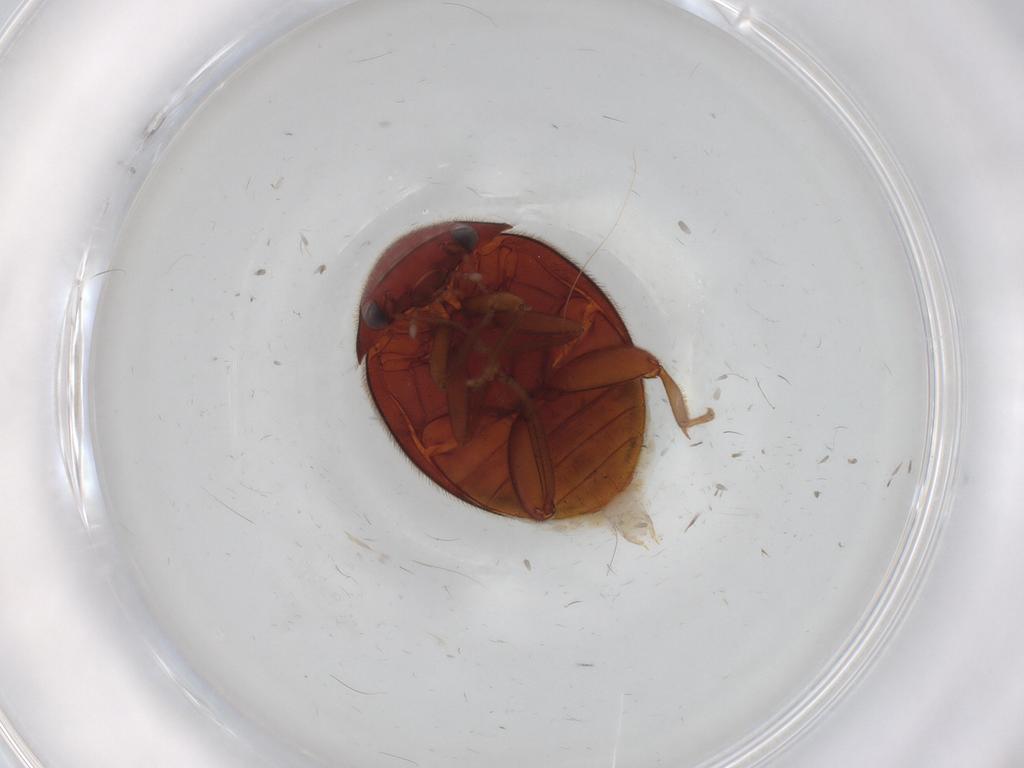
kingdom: Animalia
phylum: Arthropoda
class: Insecta
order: Coleoptera
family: Scirtidae
